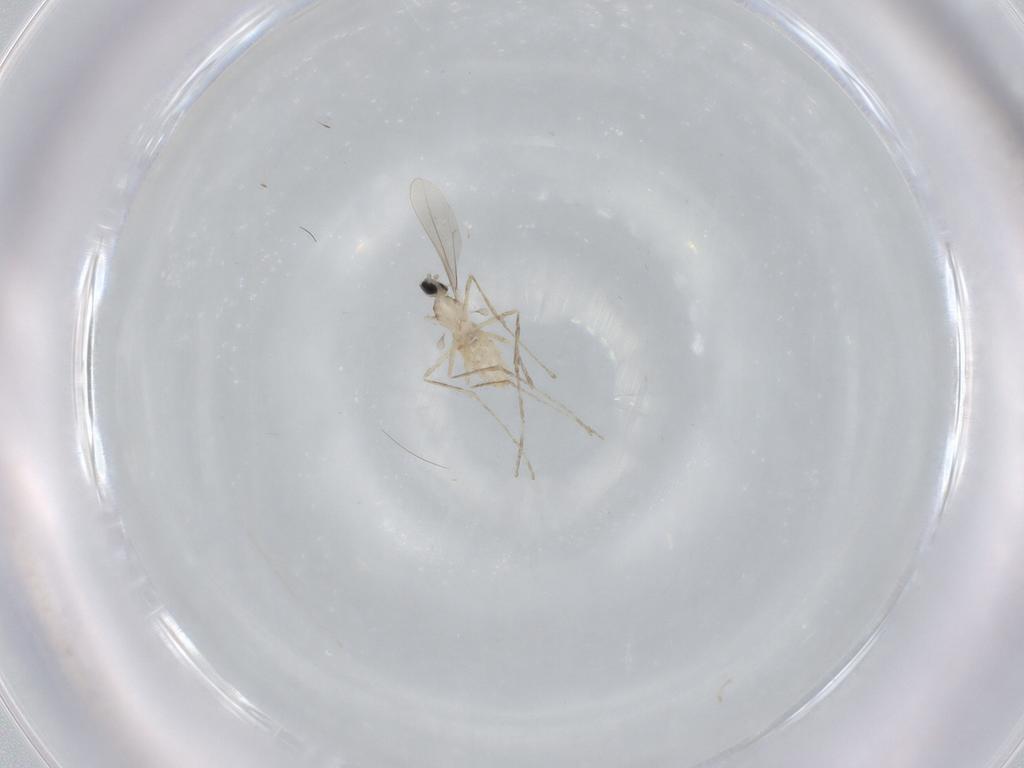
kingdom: Animalia
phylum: Arthropoda
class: Insecta
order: Diptera
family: Cecidomyiidae
